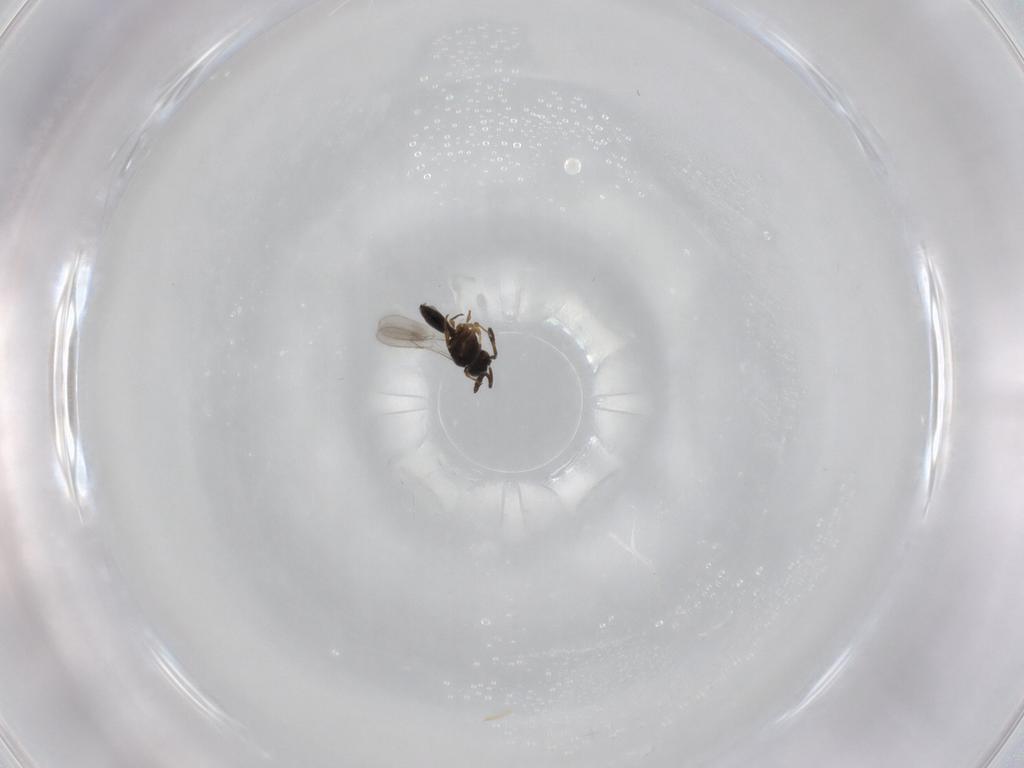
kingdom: Animalia
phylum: Arthropoda
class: Insecta
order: Hymenoptera
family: Scelionidae
